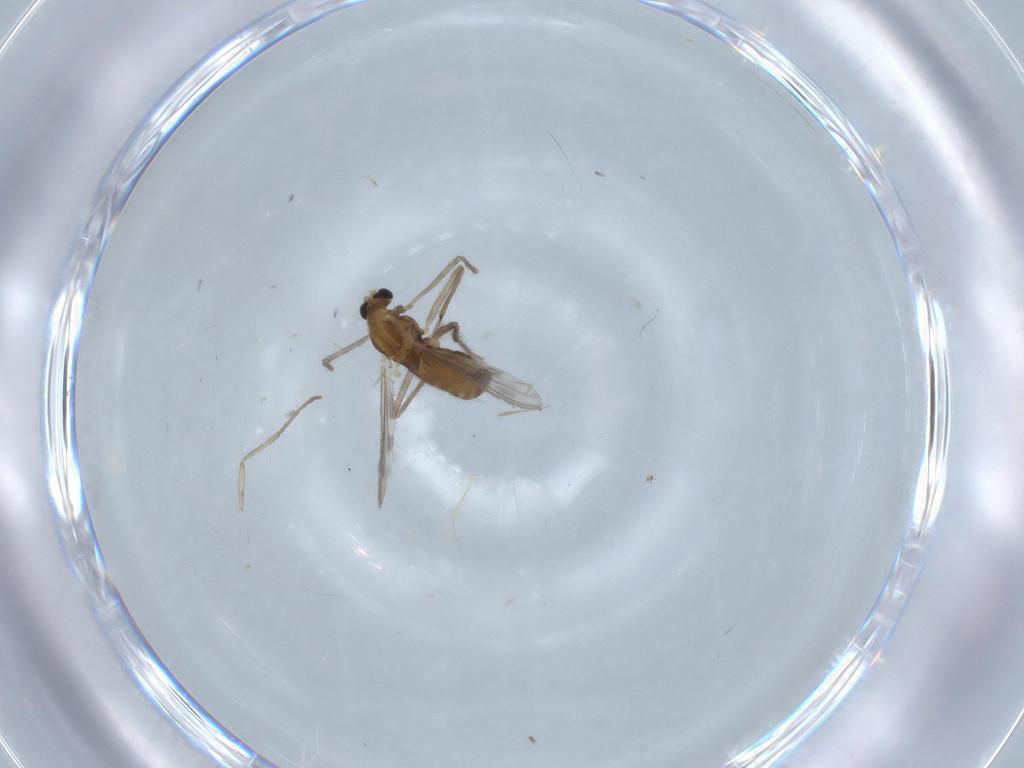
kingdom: Animalia
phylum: Arthropoda
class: Insecta
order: Diptera
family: Chironomidae
